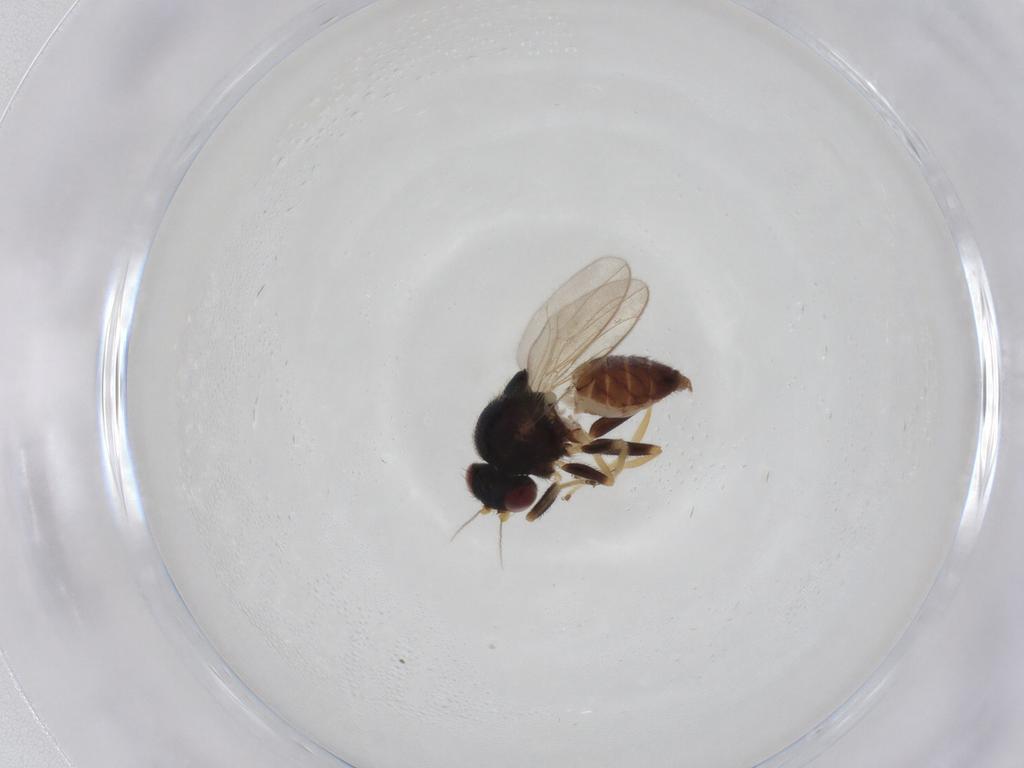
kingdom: Animalia
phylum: Arthropoda
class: Insecta
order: Diptera
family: Chloropidae
